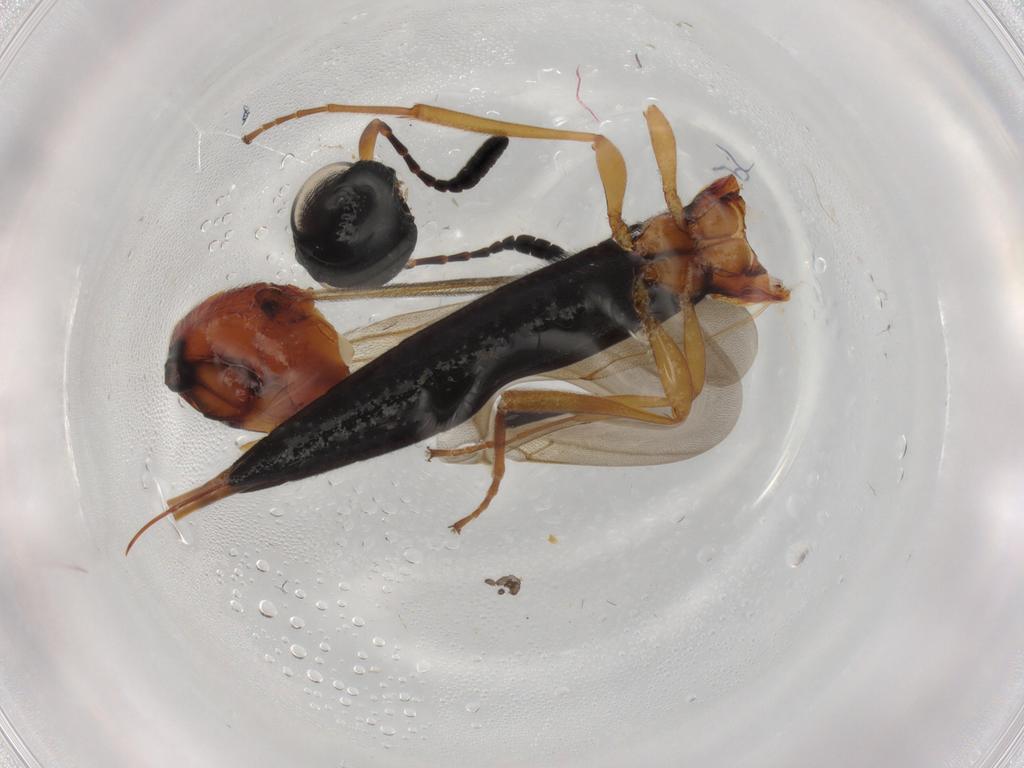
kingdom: Animalia
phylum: Arthropoda
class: Insecta
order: Hymenoptera
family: Scelionidae
